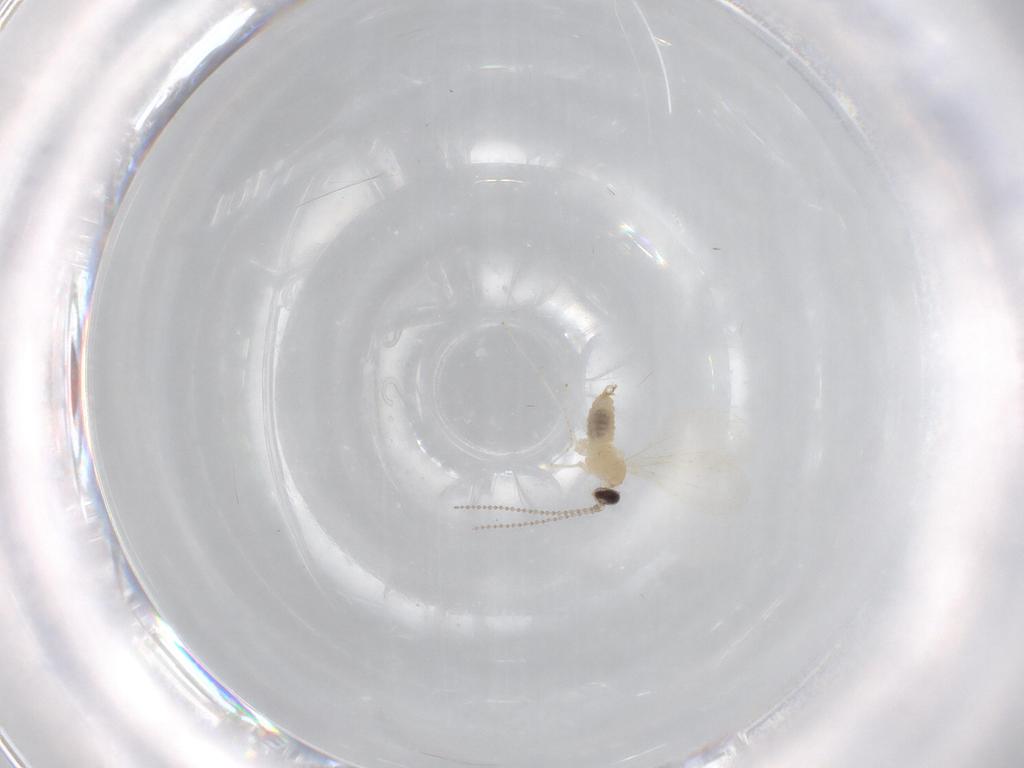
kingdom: Animalia
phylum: Arthropoda
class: Insecta
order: Diptera
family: Cecidomyiidae
